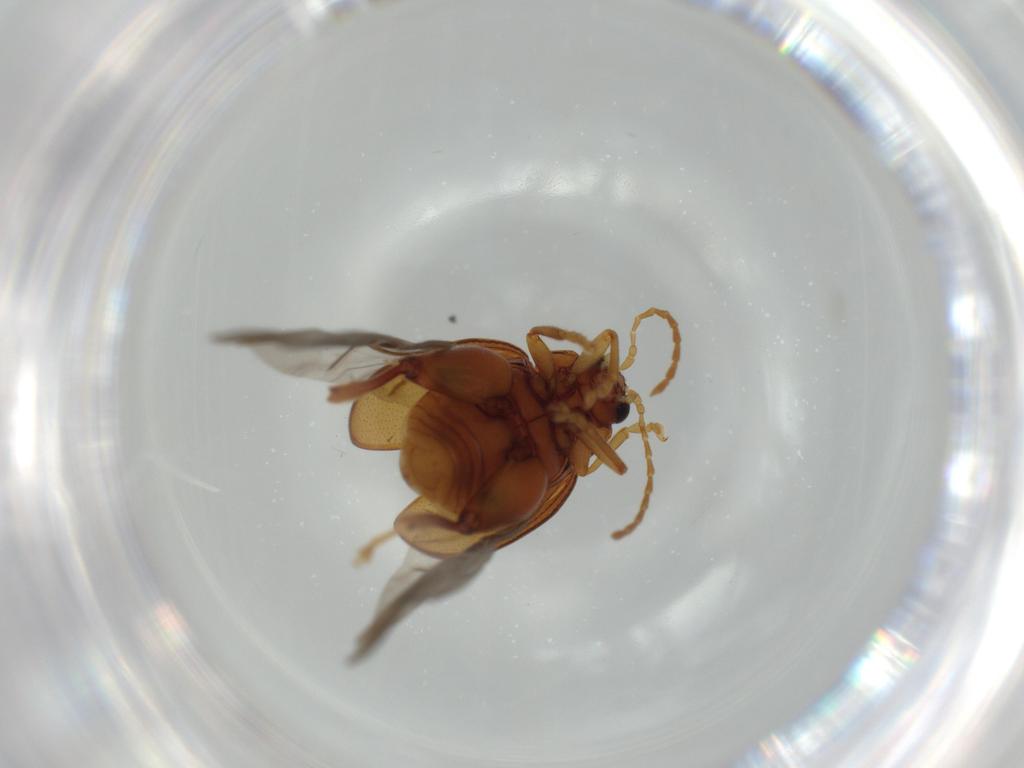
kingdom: Animalia
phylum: Arthropoda
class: Insecta
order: Coleoptera
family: Chrysomelidae
